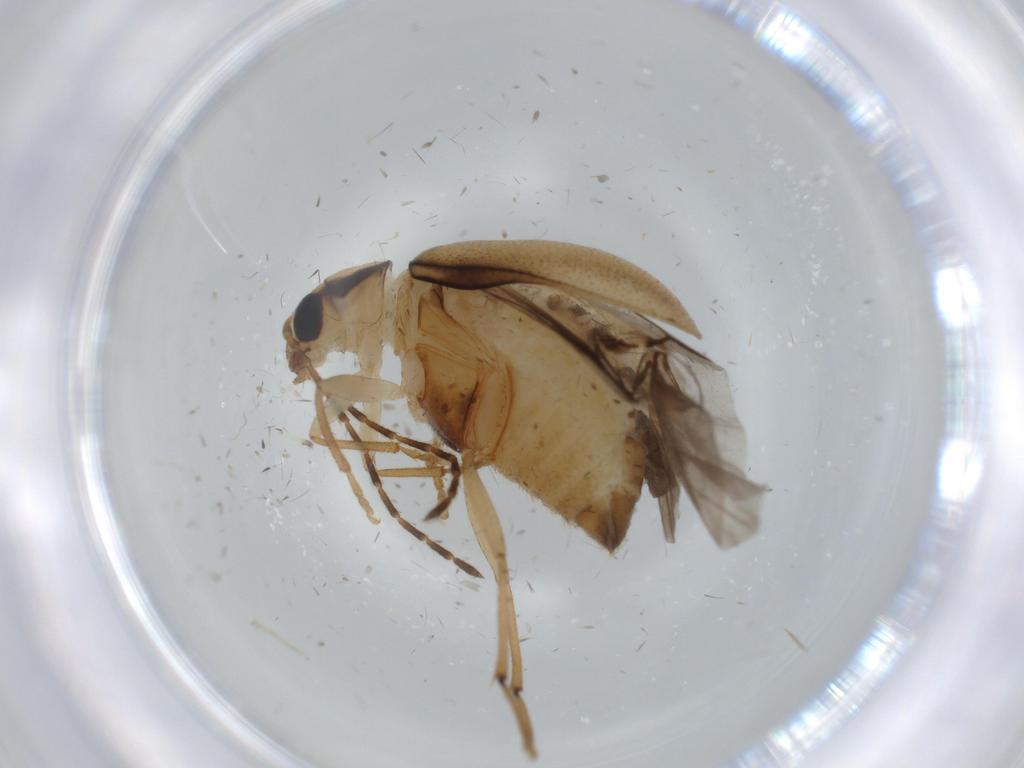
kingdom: Animalia
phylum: Arthropoda
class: Insecta
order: Coleoptera
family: Chrysomelidae
